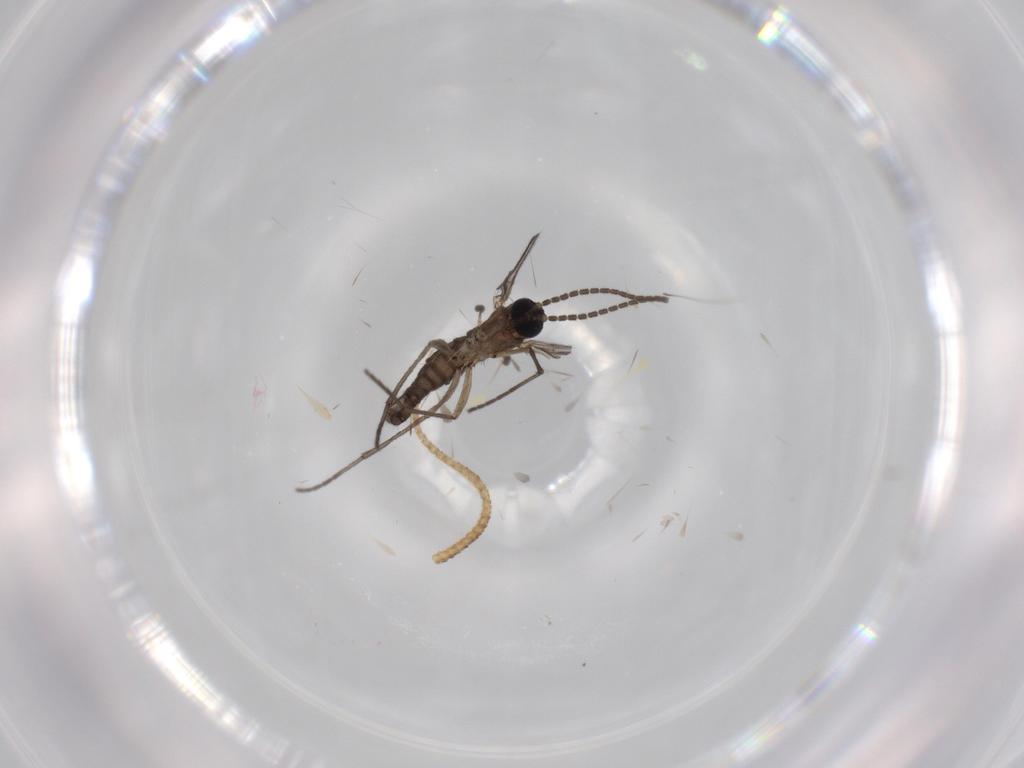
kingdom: Animalia
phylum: Arthropoda
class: Insecta
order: Diptera
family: Sciaridae
